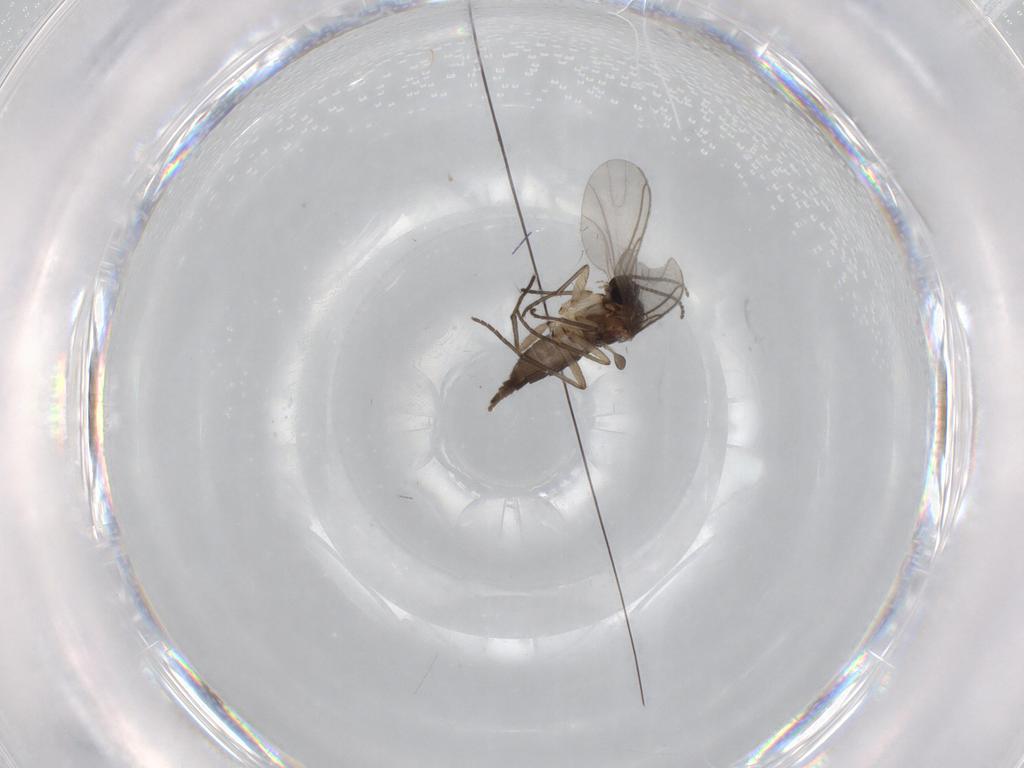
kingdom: Animalia
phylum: Arthropoda
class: Insecta
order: Diptera
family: Sciaridae
